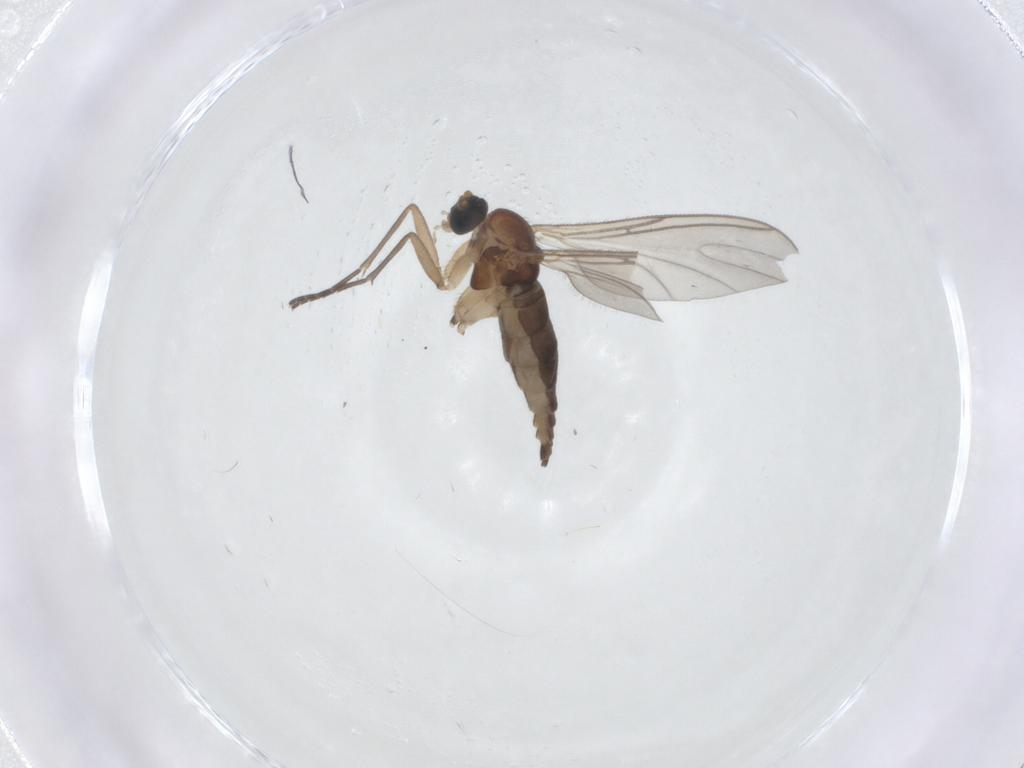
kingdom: Animalia
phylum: Arthropoda
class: Insecta
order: Diptera
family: Sciaridae
